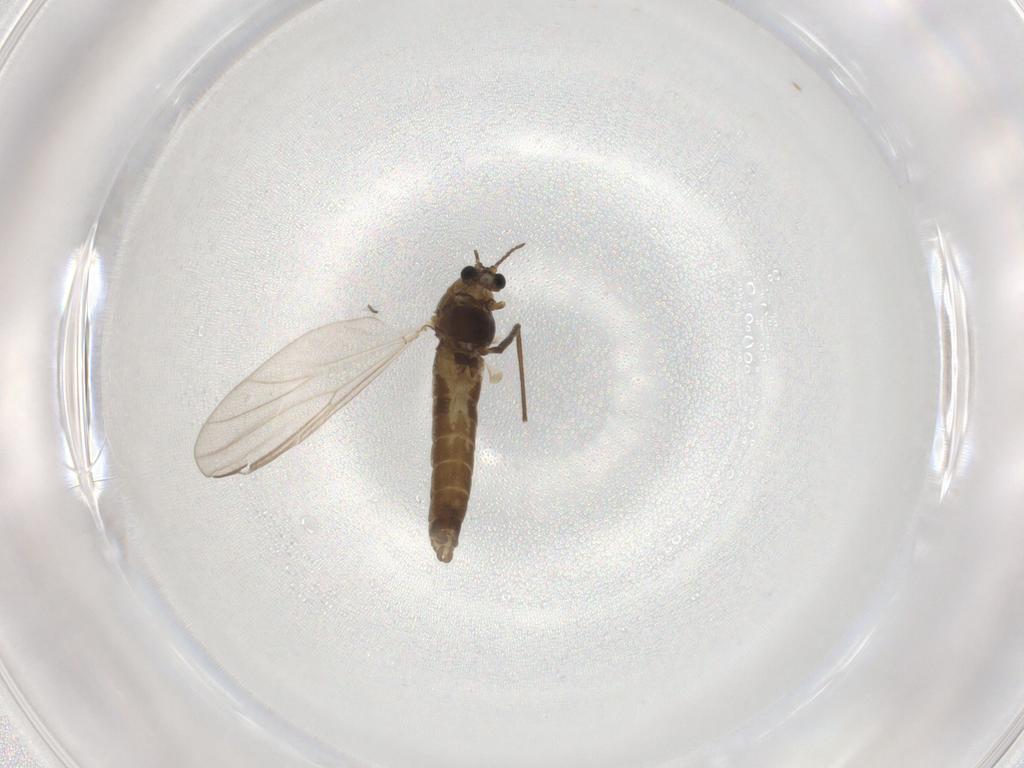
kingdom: Animalia
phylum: Arthropoda
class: Insecta
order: Diptera
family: Chironomidae
